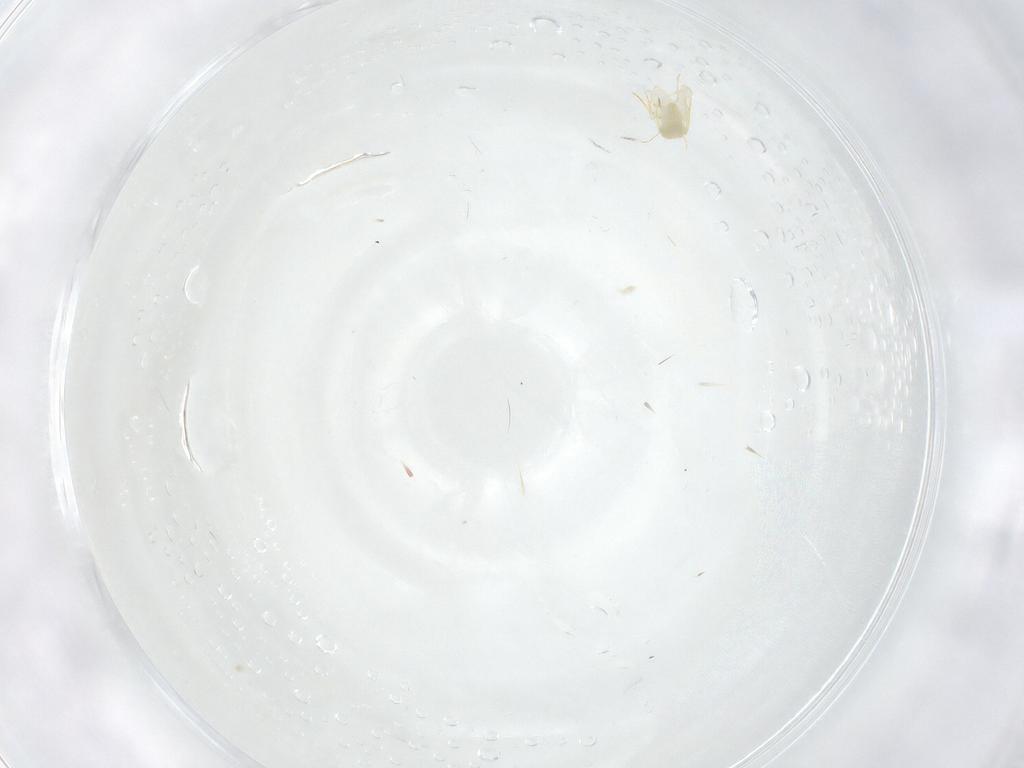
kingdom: Animalia
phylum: Arthropoda
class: Insecta
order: Hemiptera
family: Cicadellidae
